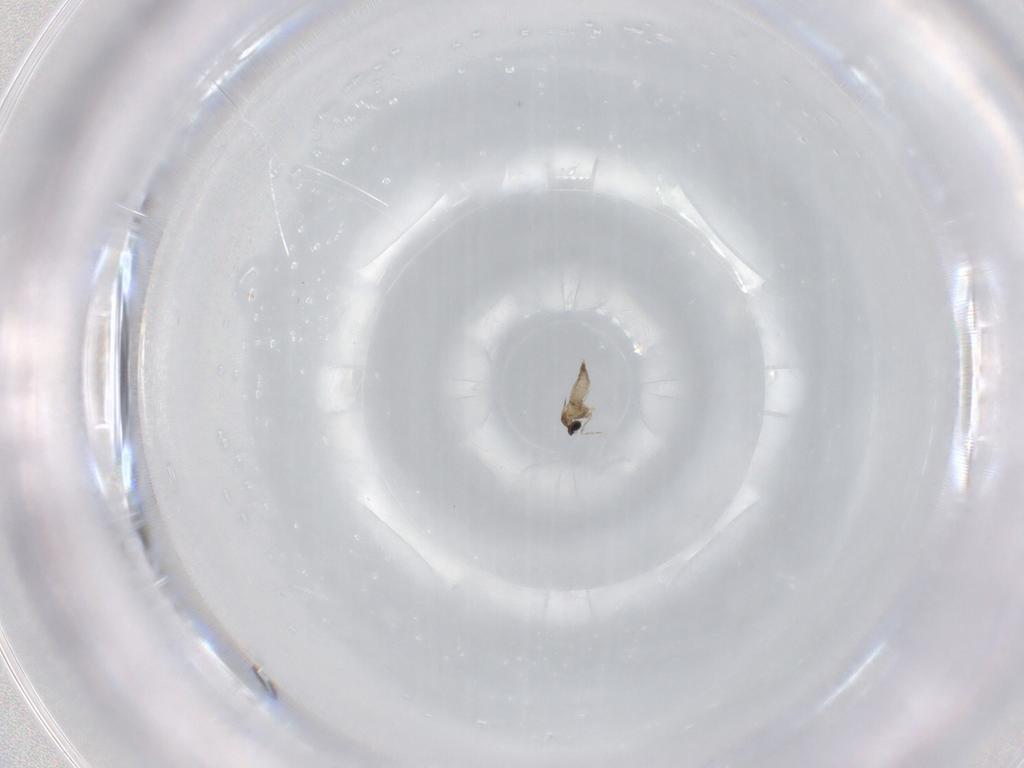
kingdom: Animalia
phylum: Arthropoda
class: Insecta
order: Diptera
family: Cecidomyiidae
